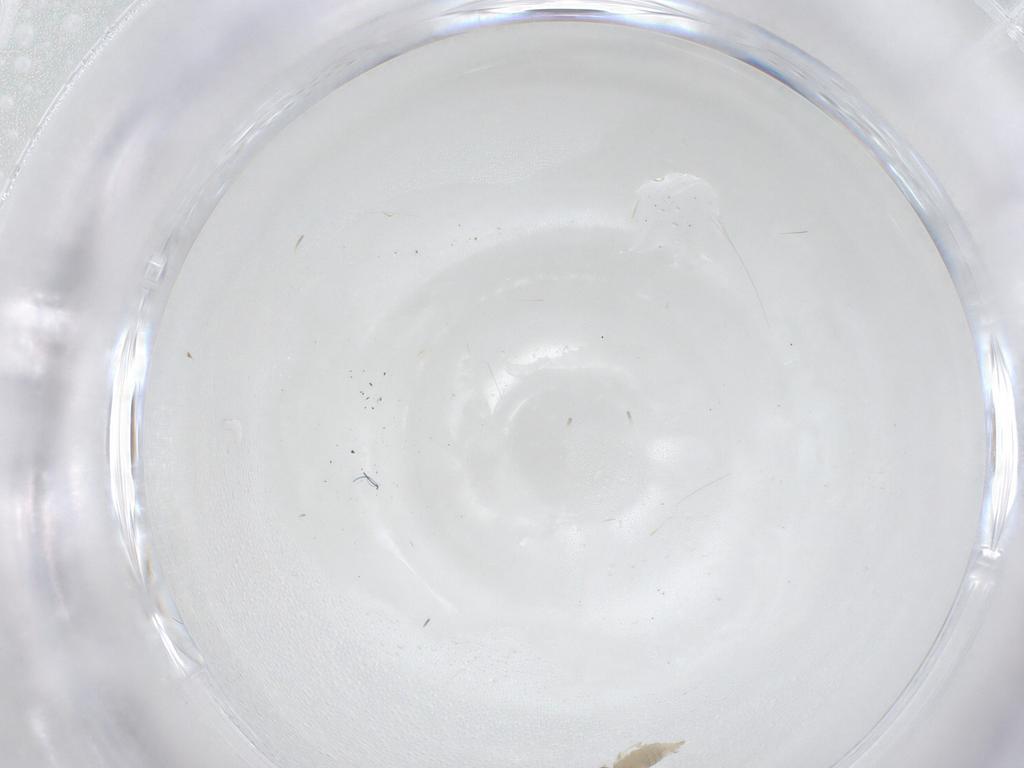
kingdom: Animalia
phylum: Arthropoda
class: Insecta
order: Diptera
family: Cecidomyiidae
